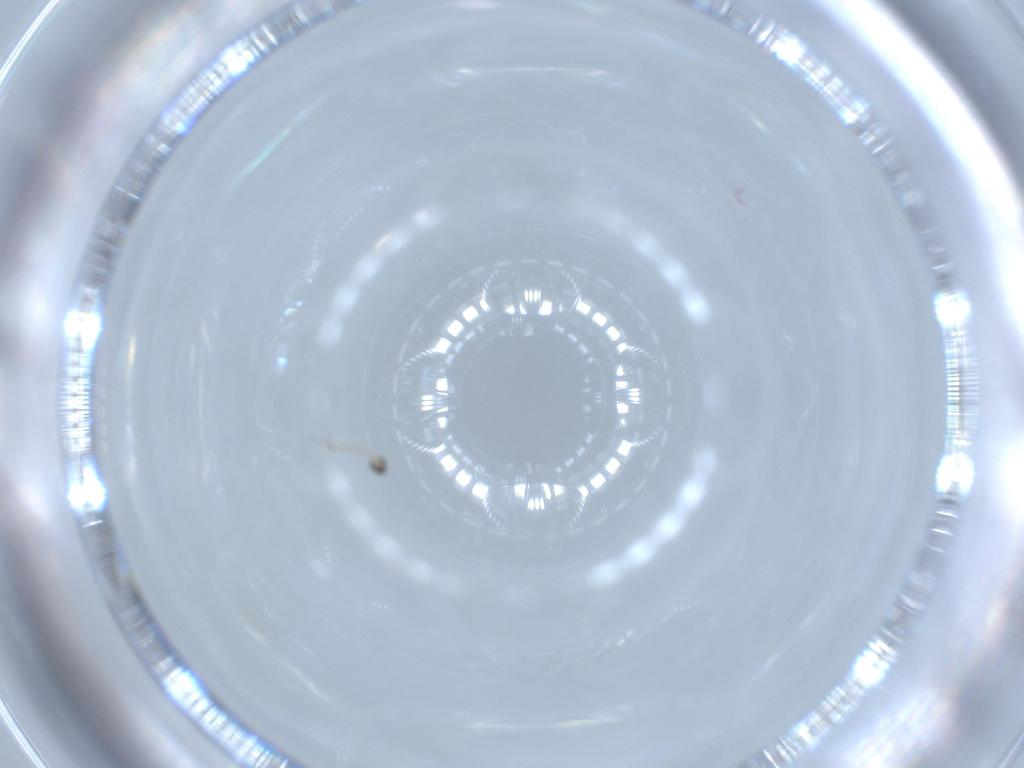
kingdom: Animalia
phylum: Arthropoda
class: Insecta
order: Diptera
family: Cecidomyiidae
